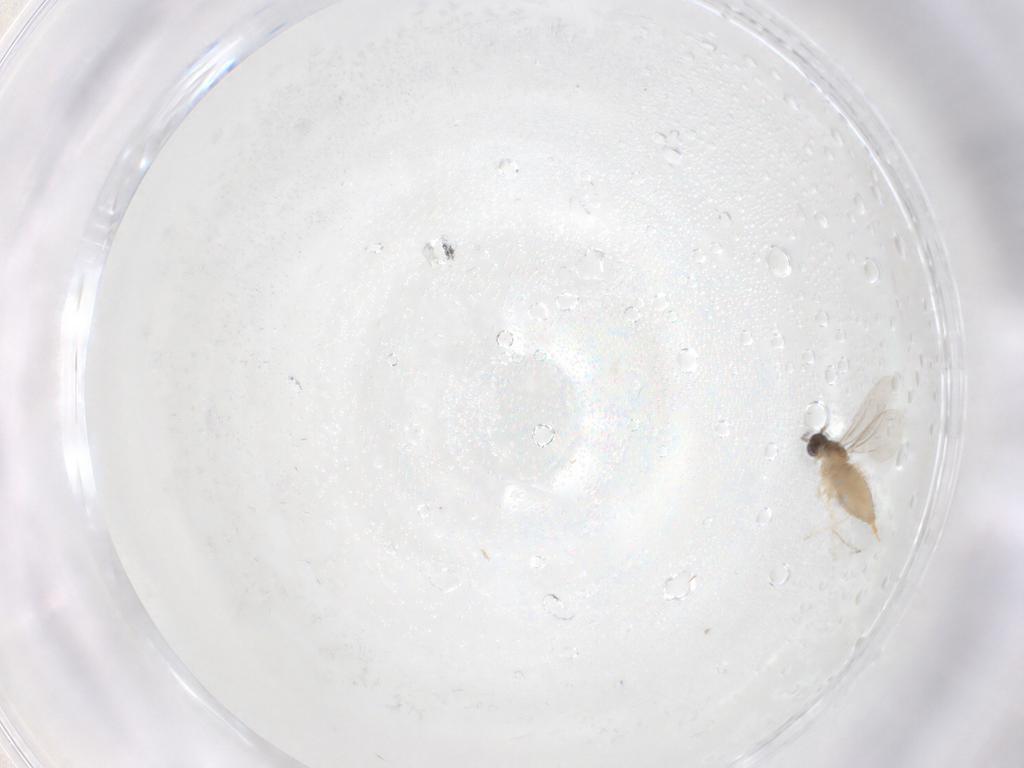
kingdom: Animalia
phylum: Arthropoda
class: Insecta
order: Diptera
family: Cecidomyiidae
